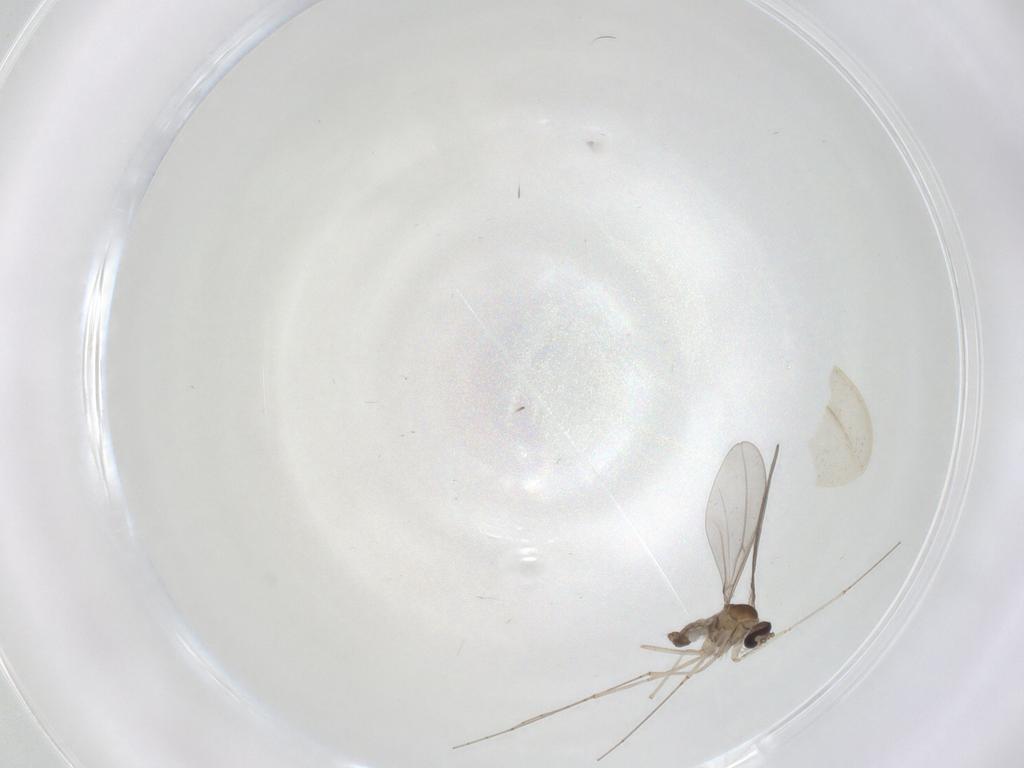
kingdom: Animalia
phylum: Arthropoda
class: Insecta
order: Diptera
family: Cecidomyiidae
